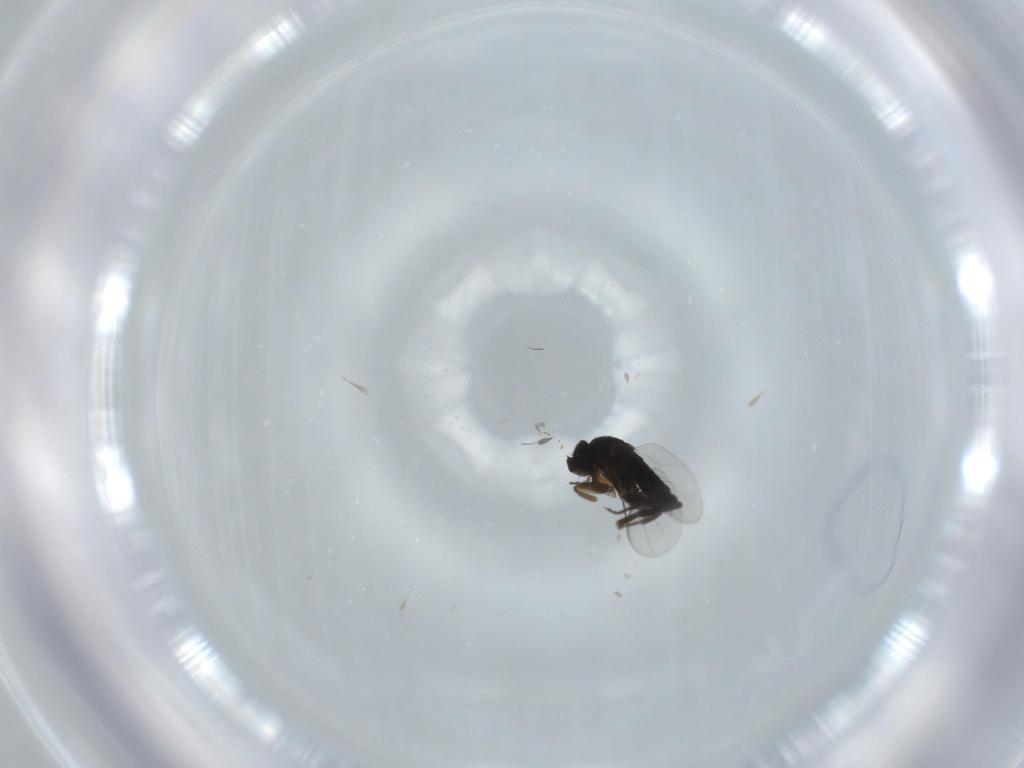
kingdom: Animalia
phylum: Arthropoda
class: Insecta
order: Diptera
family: Phoridae
